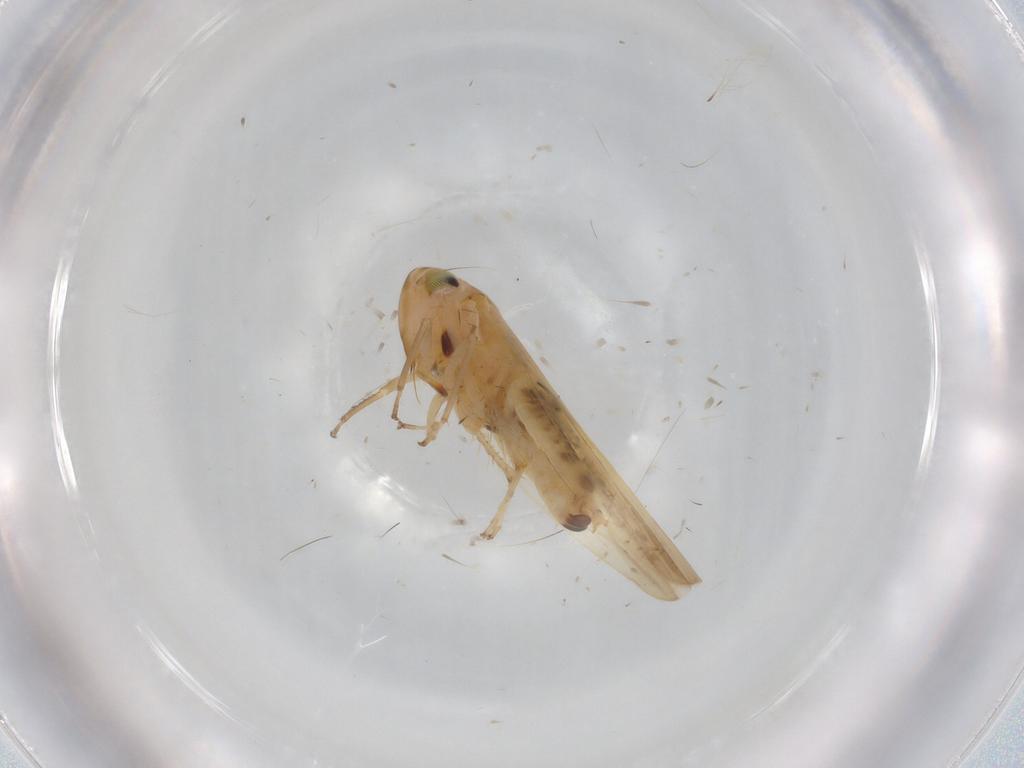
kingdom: Animalia
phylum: Arthropoda
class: Insecta
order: Hemiptera
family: Cicadellidae
